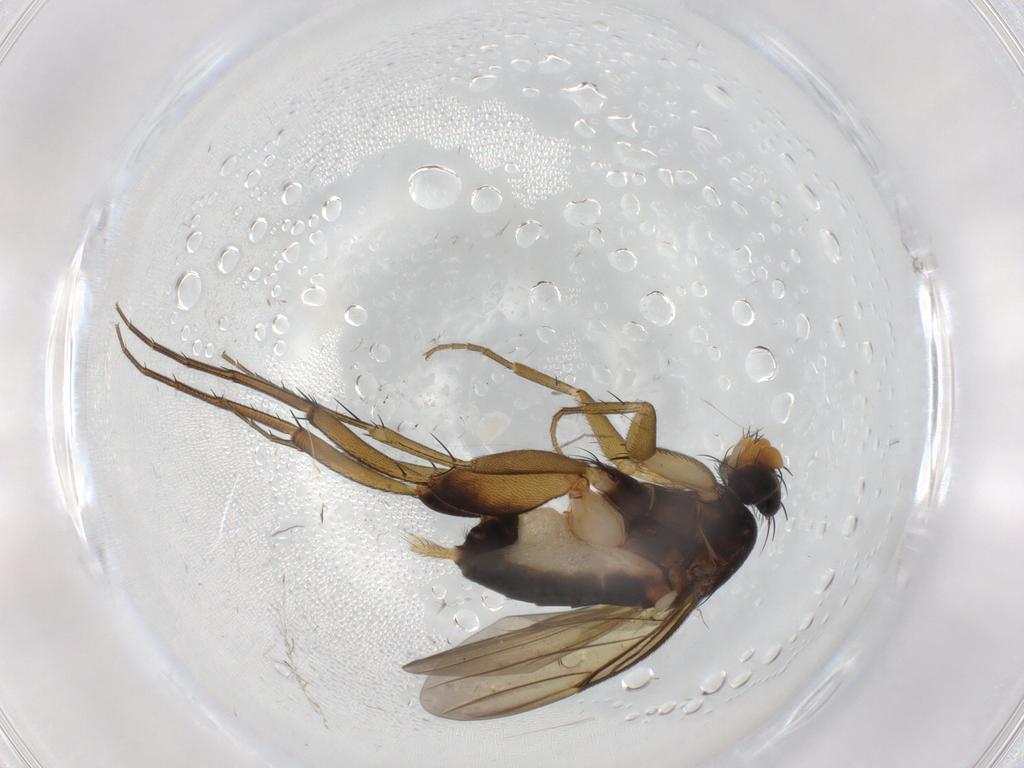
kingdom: Animalia
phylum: Arthropoda
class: Insecta
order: Diptera
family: Phoridae
